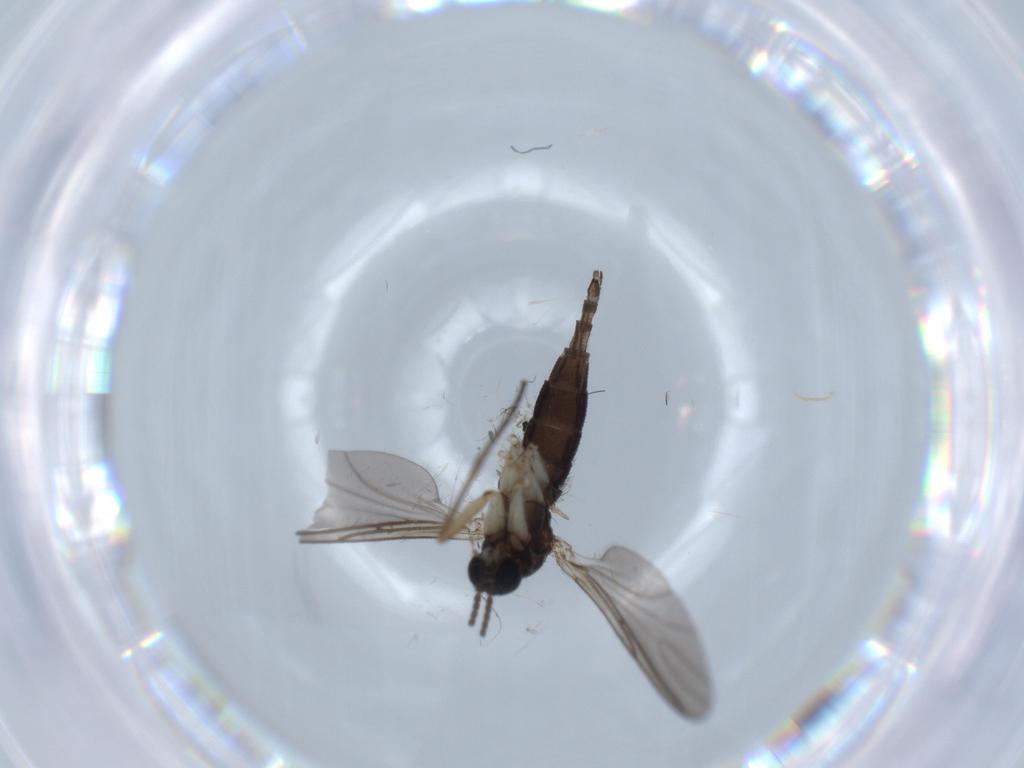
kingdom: Animalia
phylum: Arthropoda
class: Insecta
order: Diptera
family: Sciaridae
